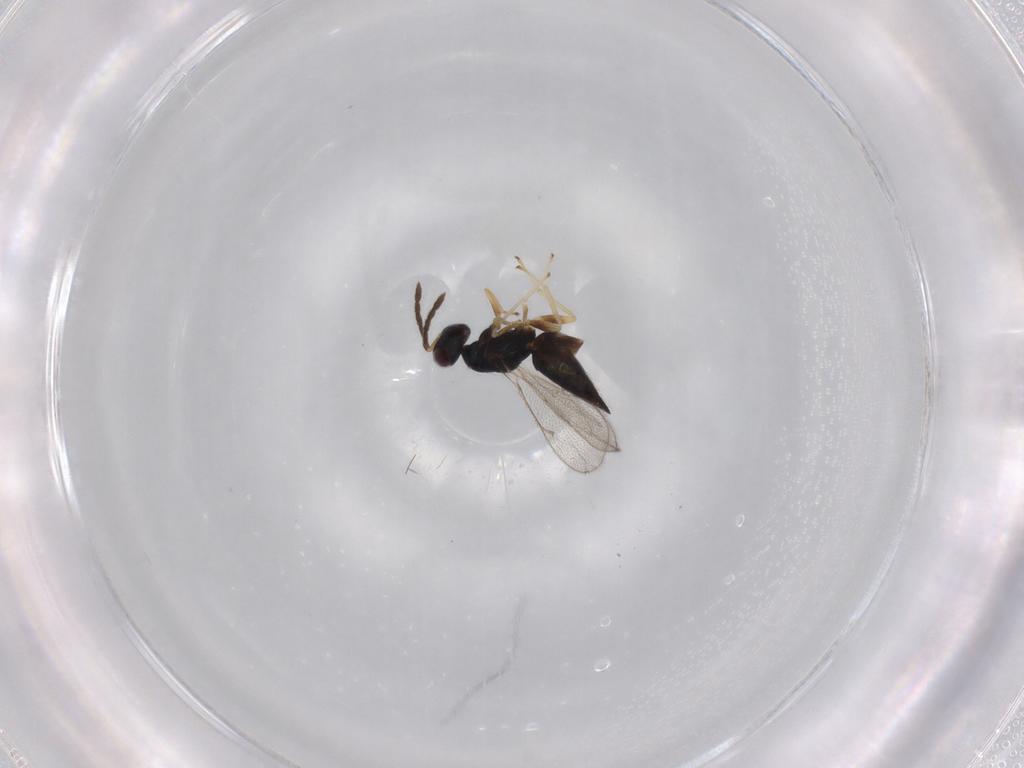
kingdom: Animalia
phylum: Arthropoda
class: Insecta
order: Hymenoptera
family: Eulophidae
